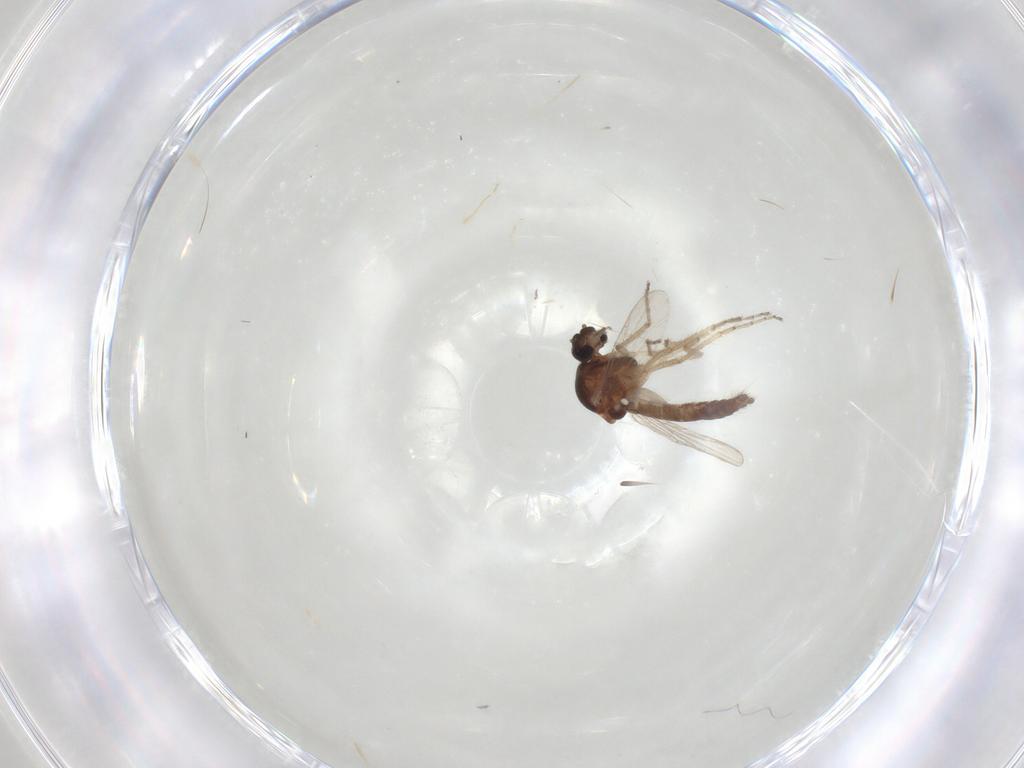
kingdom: Animalia
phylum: Arthropoda
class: Insecta
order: Diptera
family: Ceratopogonidae
